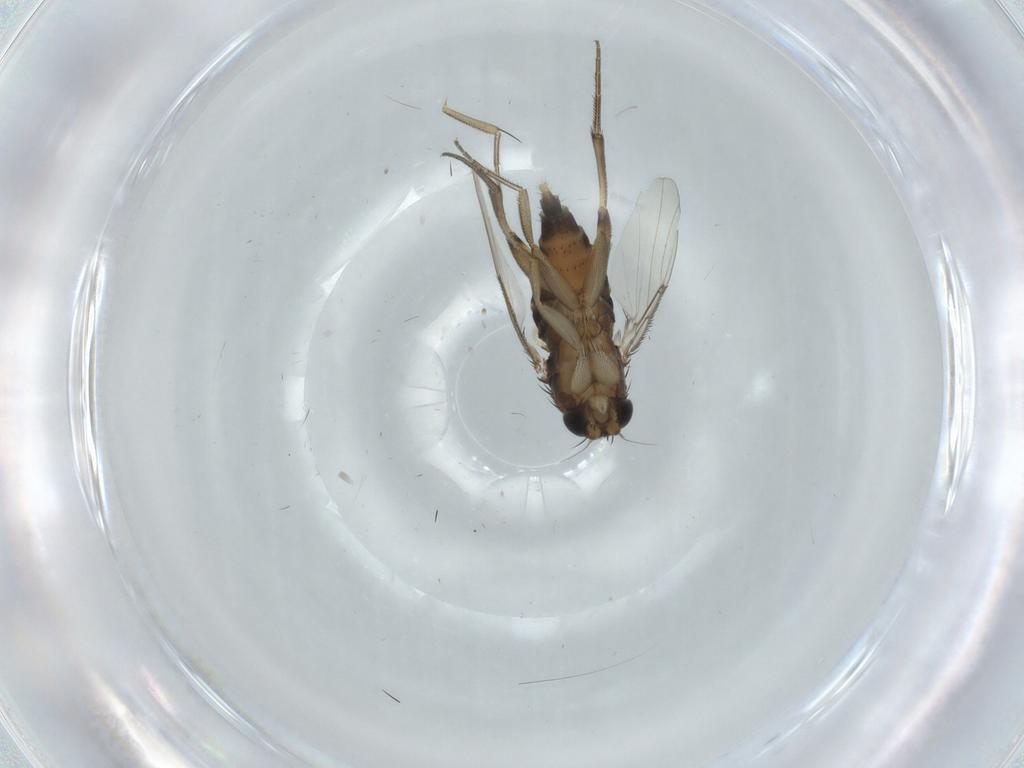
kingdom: Animalia
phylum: Arthropoda
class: Insecta
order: Diptera
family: Phoridae
